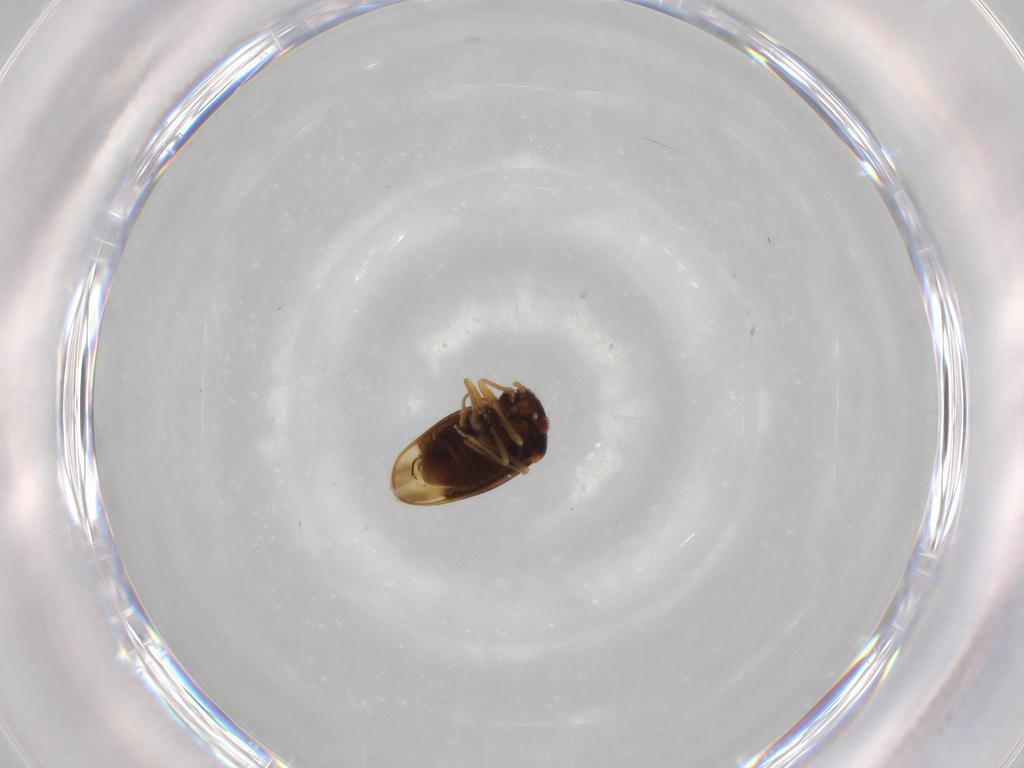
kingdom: Animalia
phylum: Arthropoda
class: Insecta
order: Hemiptera
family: Schizopteridae
